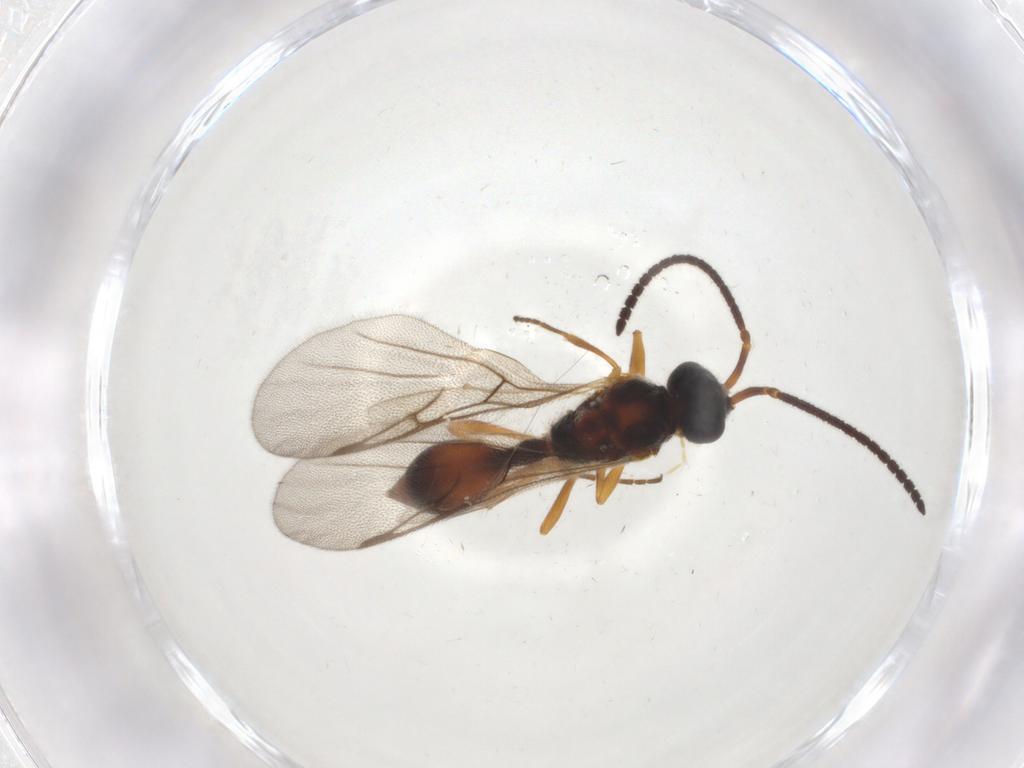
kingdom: Animalia
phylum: Arthropoda
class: Insecta
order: Hymenoptera
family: Diapriidae
